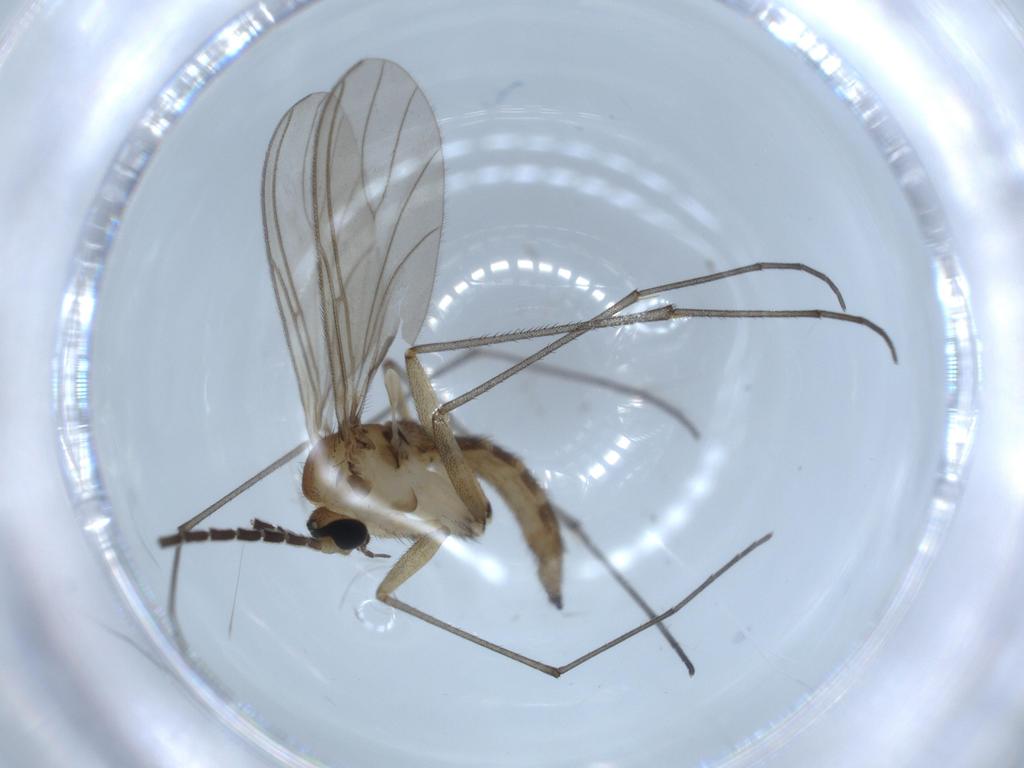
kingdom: Animalia
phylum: Arthropoda
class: Insecta
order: Diptera
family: Sciaridae
